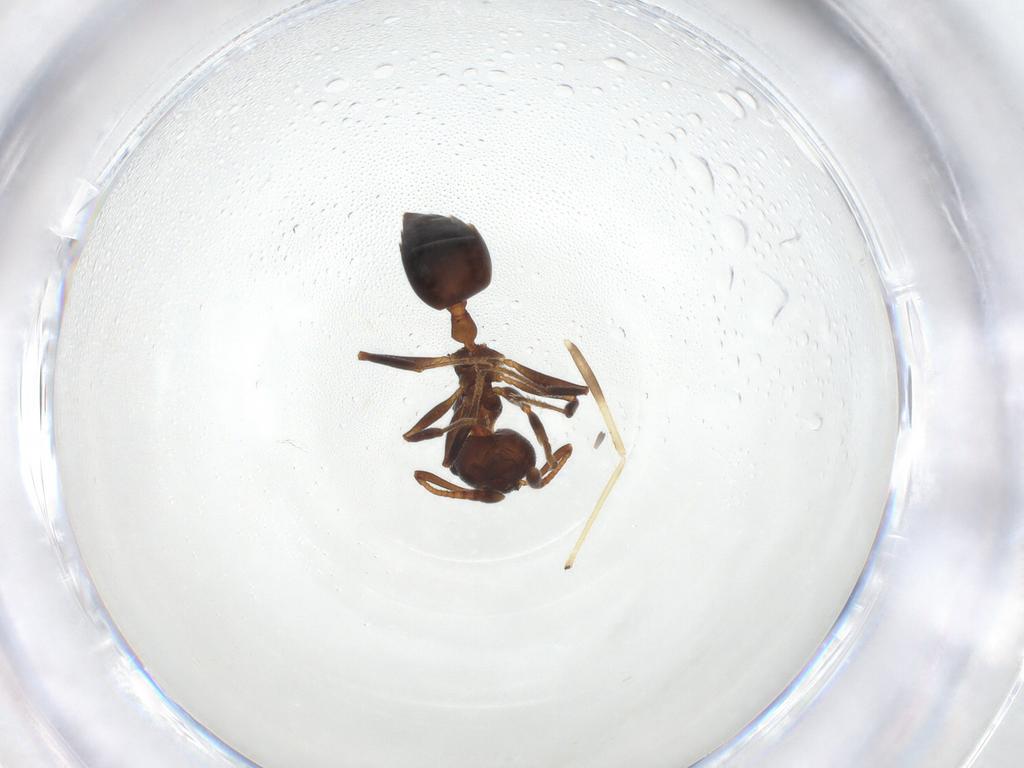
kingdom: Animalia
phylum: Arthropoda
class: Insecta
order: Hymenoptera
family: Formicidae
